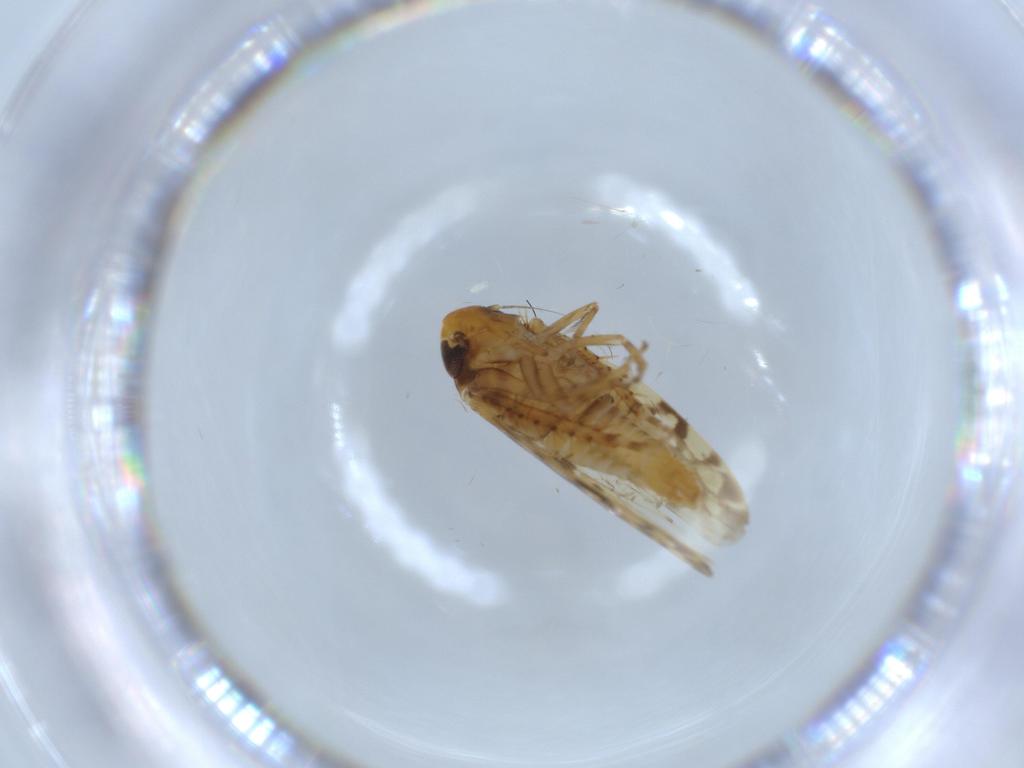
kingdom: Animalia
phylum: Arthropoda
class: Insecta
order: Hemiptera
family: Cicadellidae
